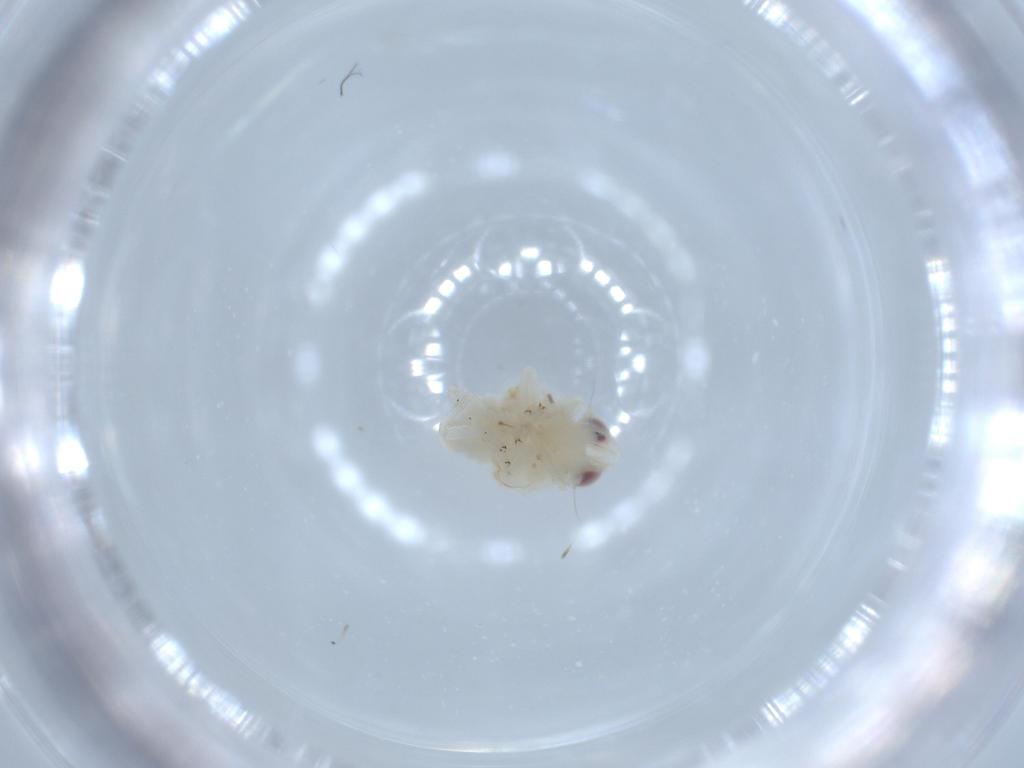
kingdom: Animalia
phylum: Arthropoda
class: Insecta
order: Hemiptera
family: Nogodinidae
